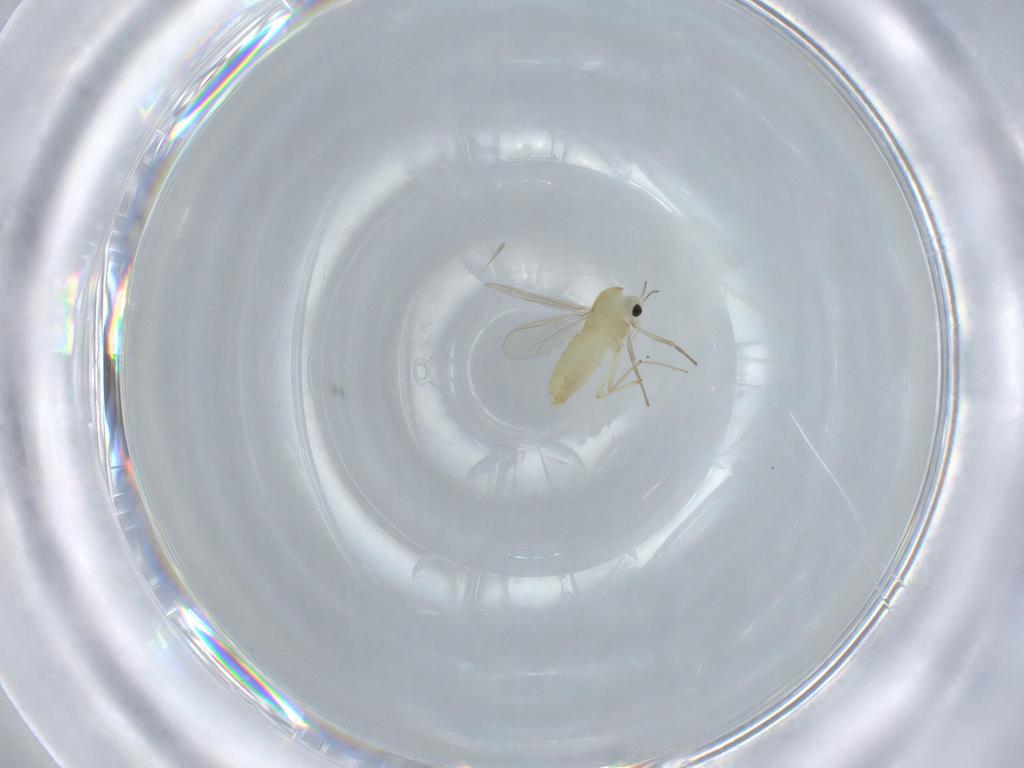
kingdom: Animalia
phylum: Arthropoda
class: Insecta
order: Diptera
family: Chironomidae
